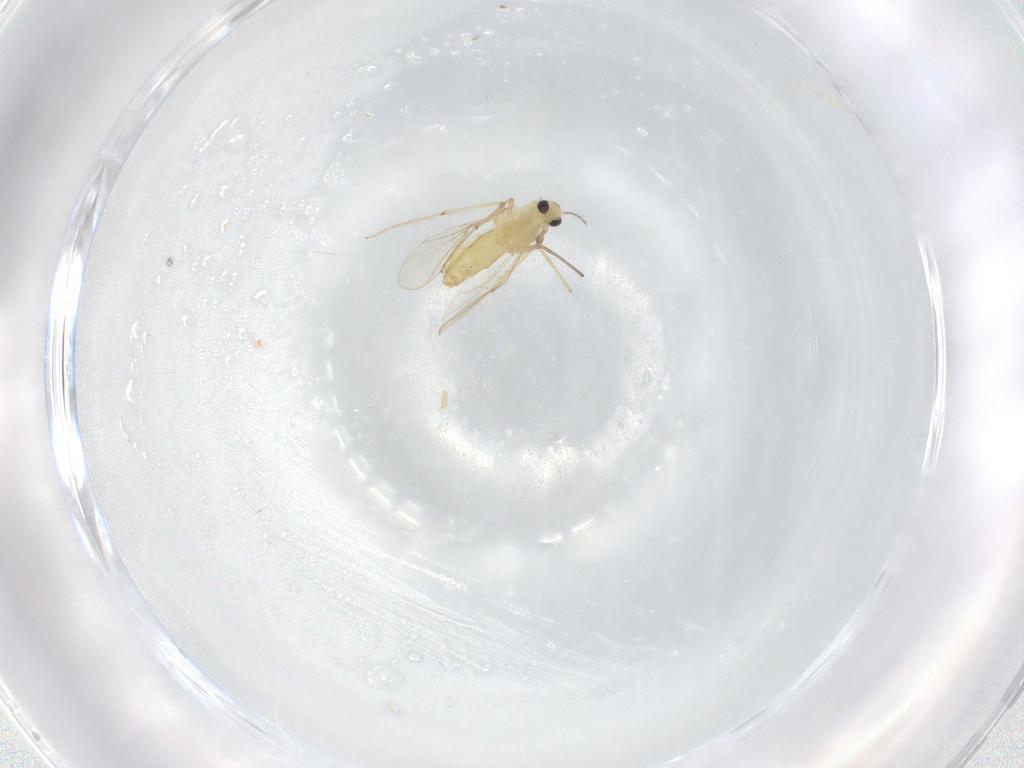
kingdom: Animalia
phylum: Arthropoda
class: Insecta
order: Diptera
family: Chironomidae
